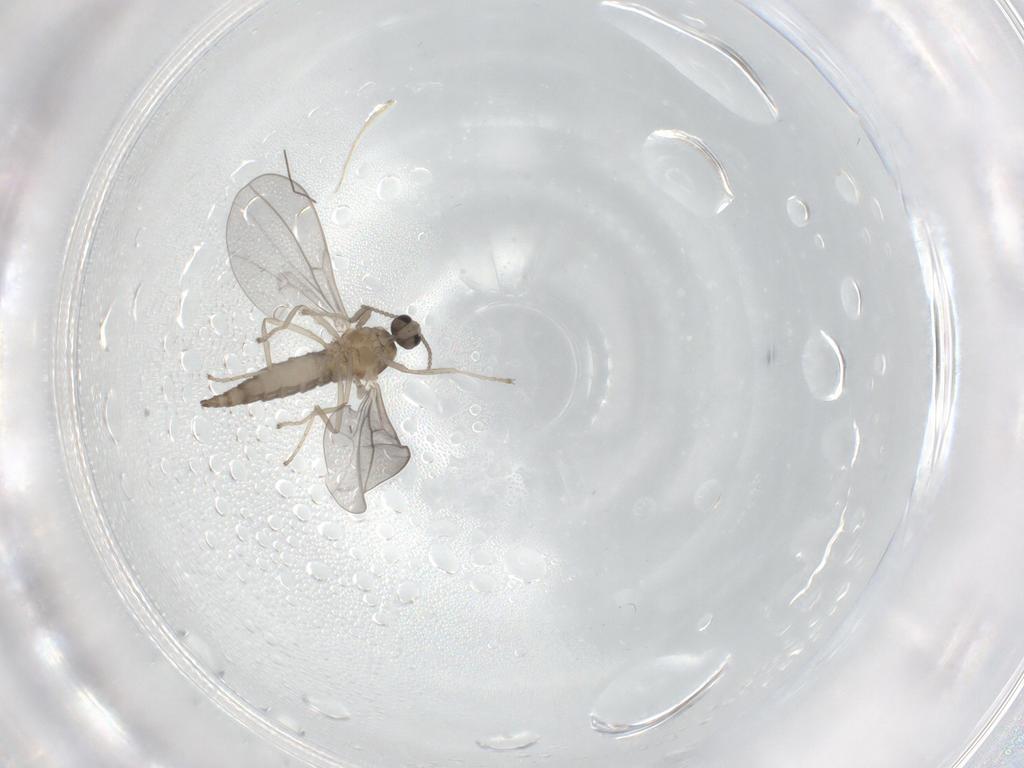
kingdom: Animalia
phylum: Arthropoda
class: Insecta
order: Diptera
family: Cecidomyiidae
